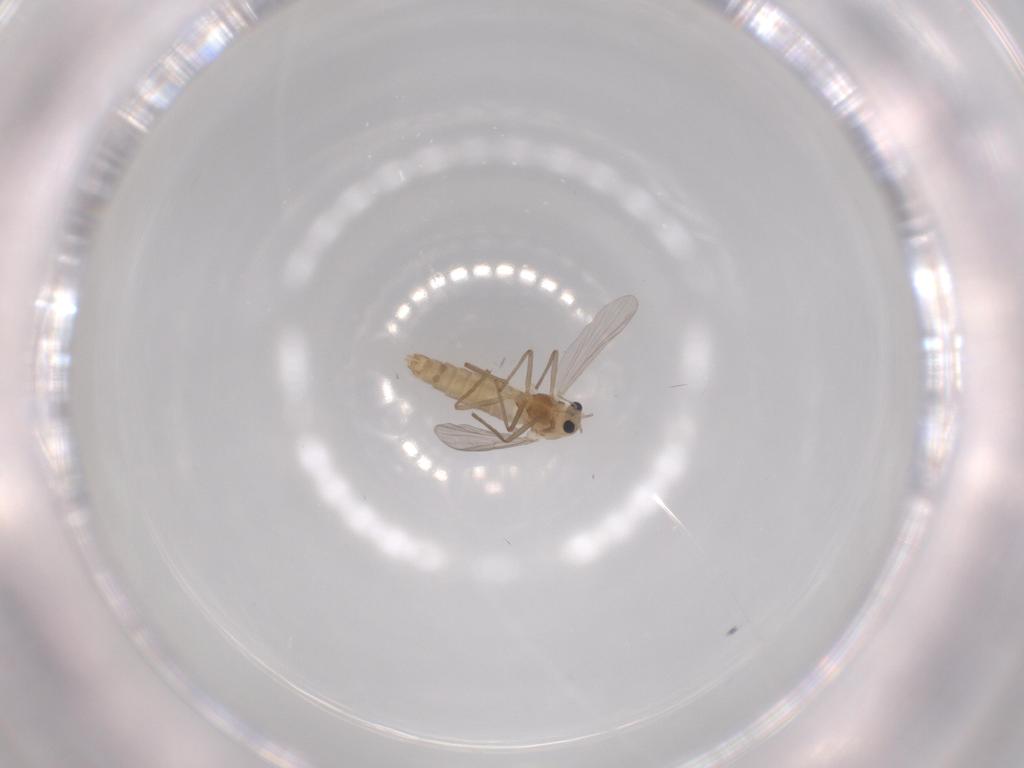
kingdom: Animalia
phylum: Arthropoda
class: Insecta
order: Diptera
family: Chironomidae
